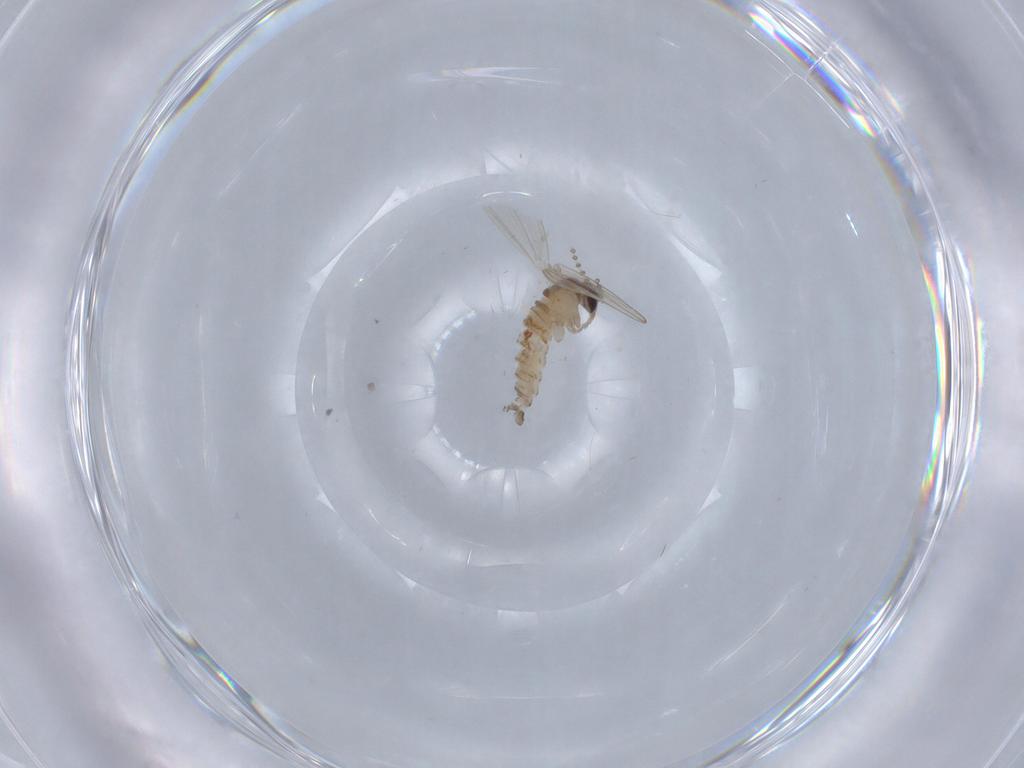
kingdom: Animalia
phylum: Arthropoda
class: Insecta
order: Diptera
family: Psychodidae
